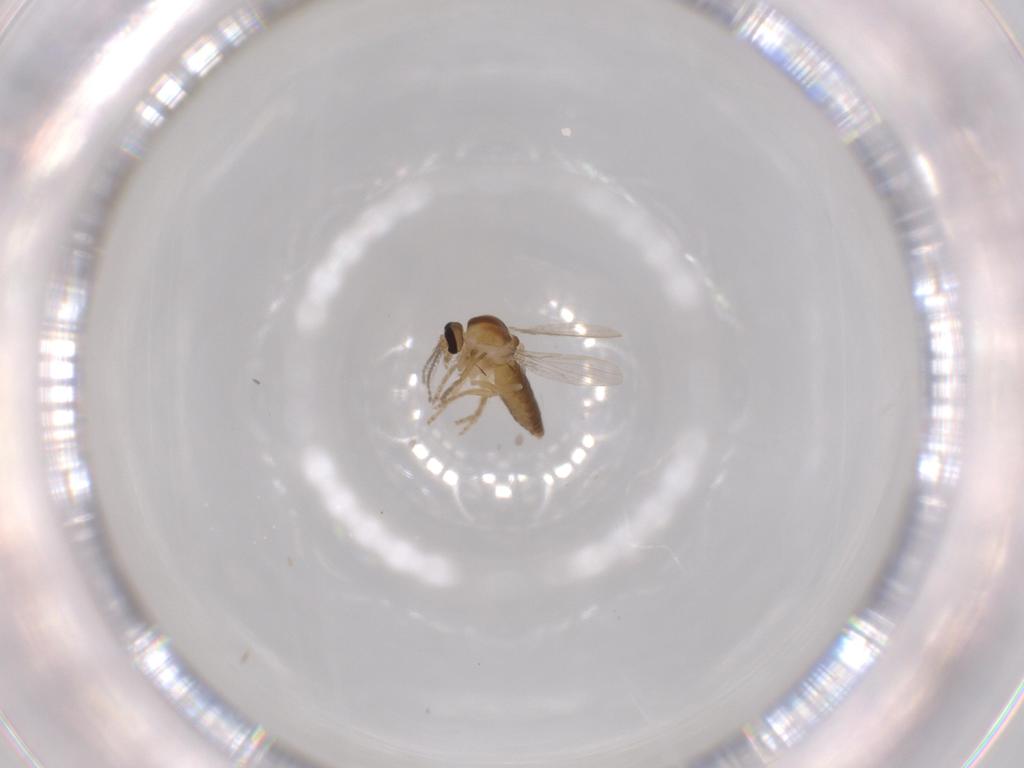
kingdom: Animalia
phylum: Arthropoda
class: Insecta
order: Diptera
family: Ceratopogonidae
